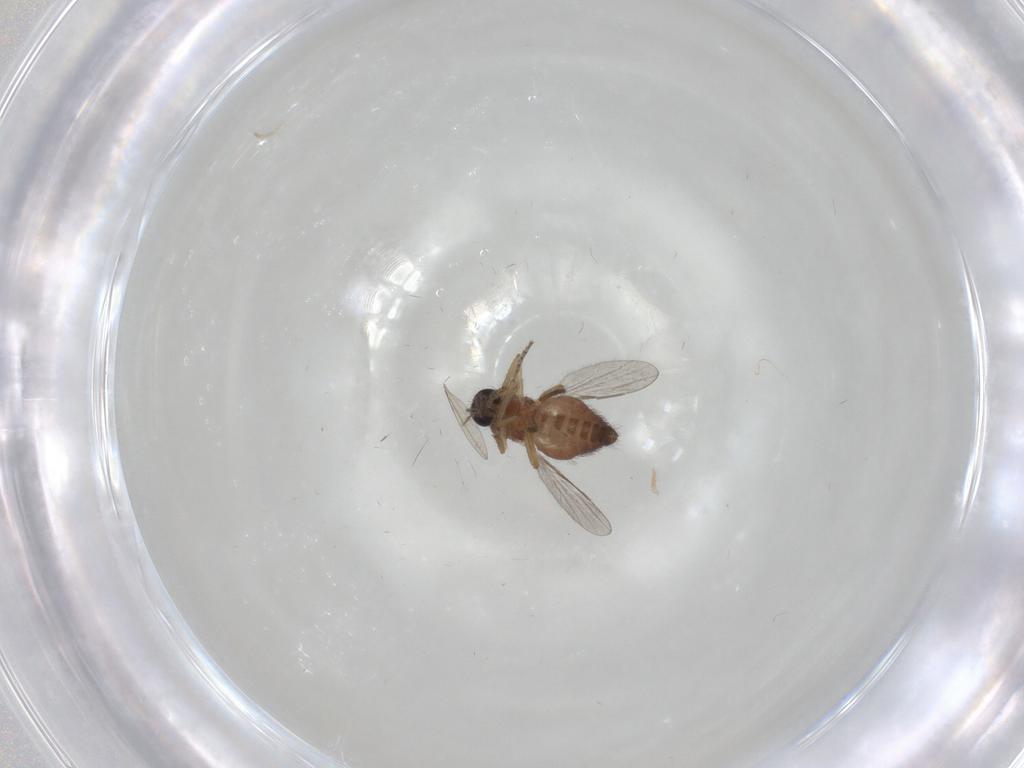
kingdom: Animalia
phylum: Arthropoda
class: Insecta
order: Diptera
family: Ceratopogonidae
